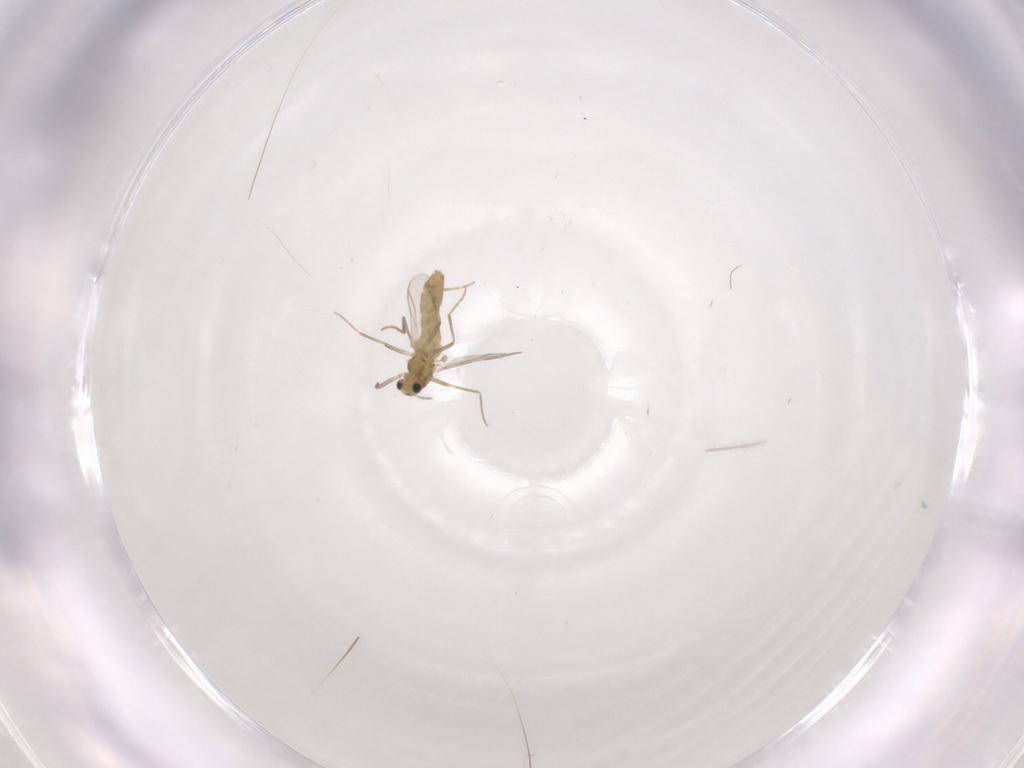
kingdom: Animalia
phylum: Arthropoda
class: Insecta
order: Diptera
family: Chironomidae
